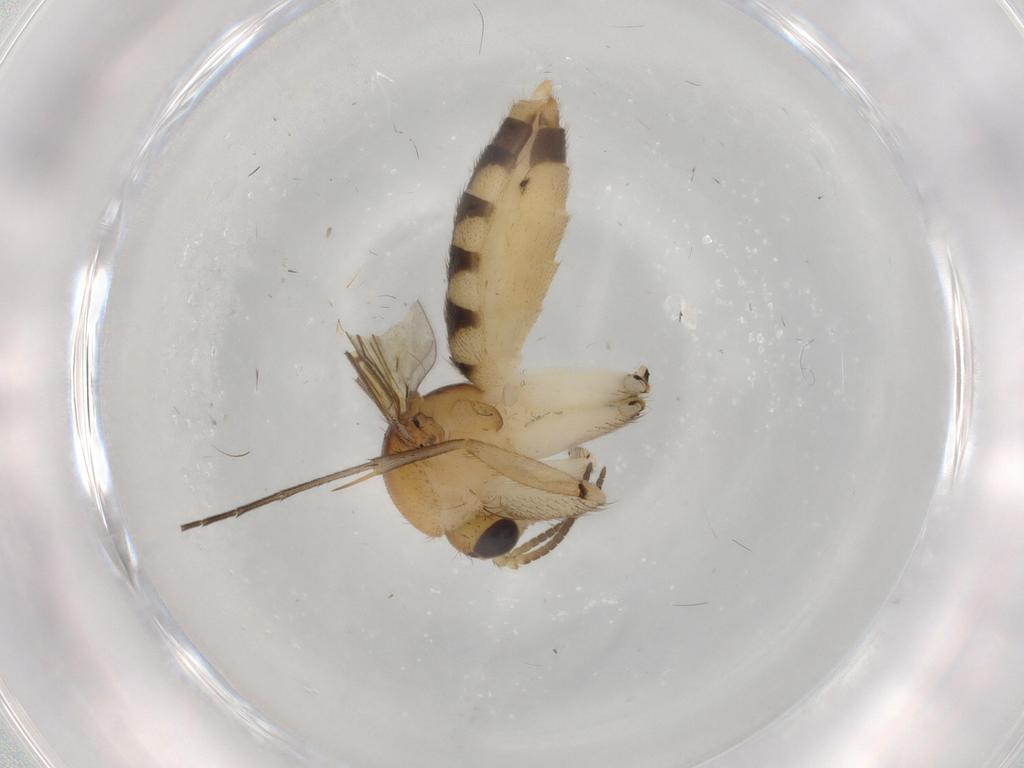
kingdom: Animalia
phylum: Arthropoda
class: Insecta
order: Diptera
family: Mycetophilidae
